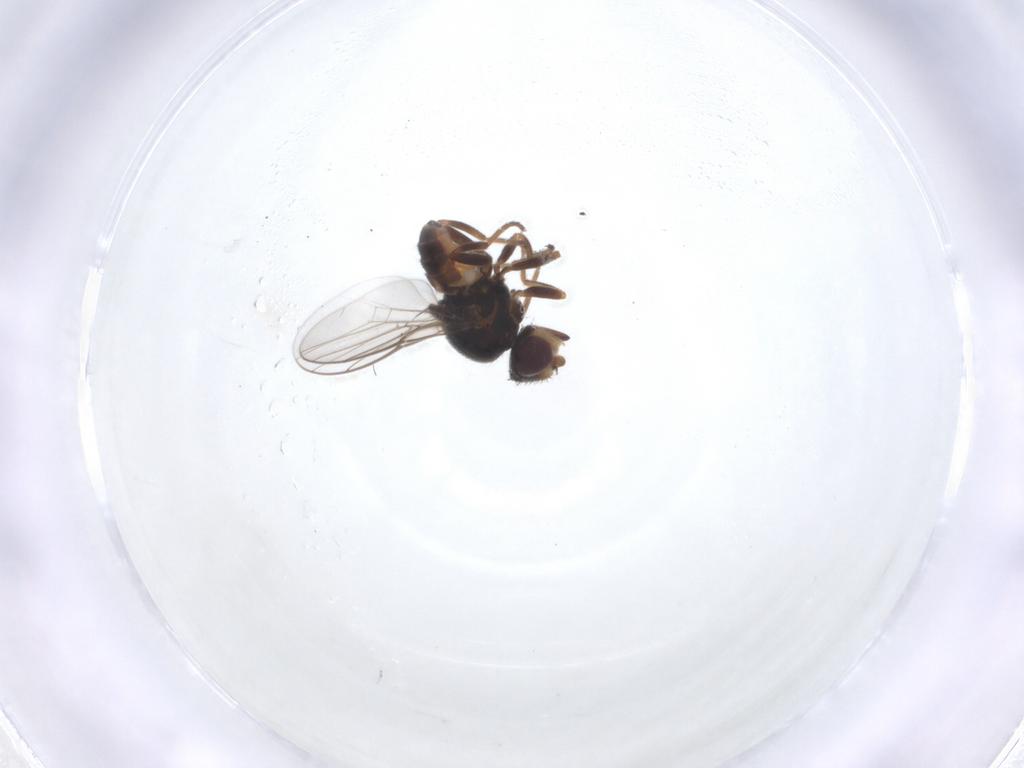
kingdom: Animalia
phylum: Arthropoda
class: Insecta
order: Diptera
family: Chloropidae
